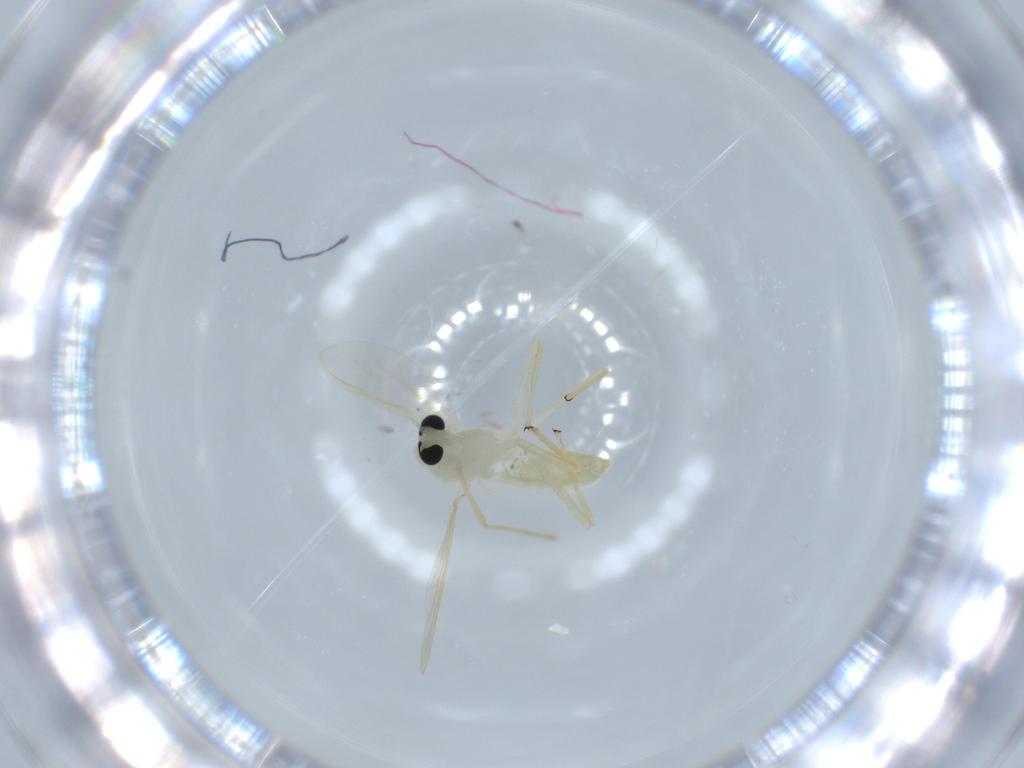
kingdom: Animalia
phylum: Arthropoda
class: Insecta
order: Diptera
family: Chironomidae
